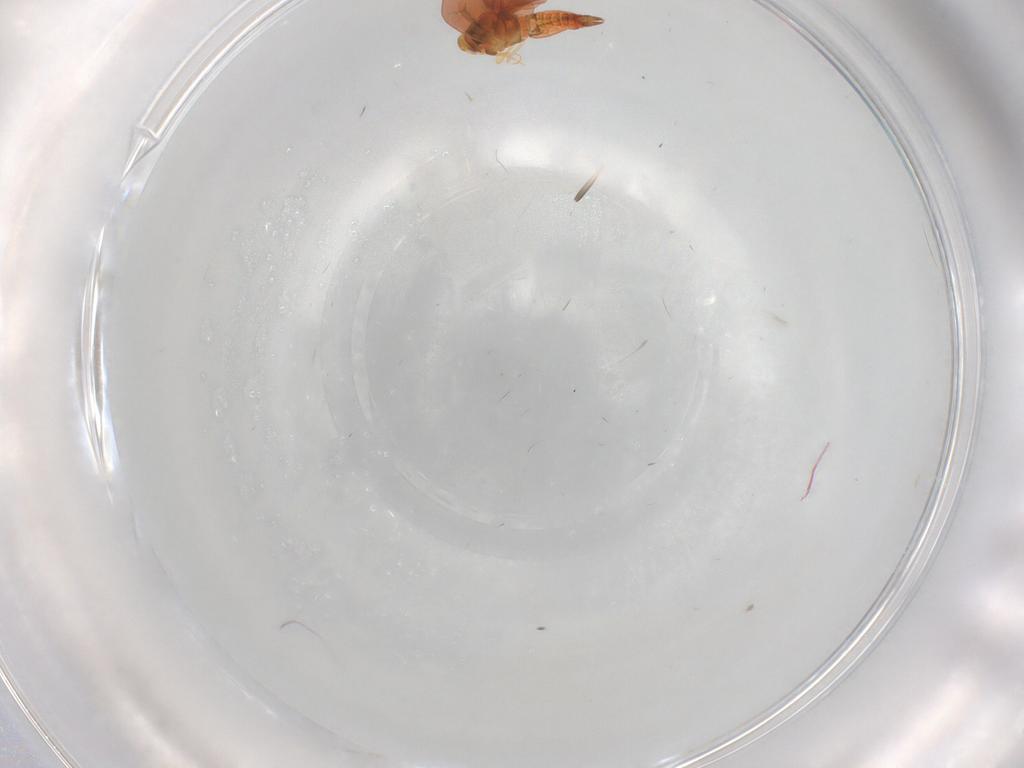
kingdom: Animalia
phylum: Arthropoda
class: Insecta
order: Hemiptera
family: Aleyrodidae
